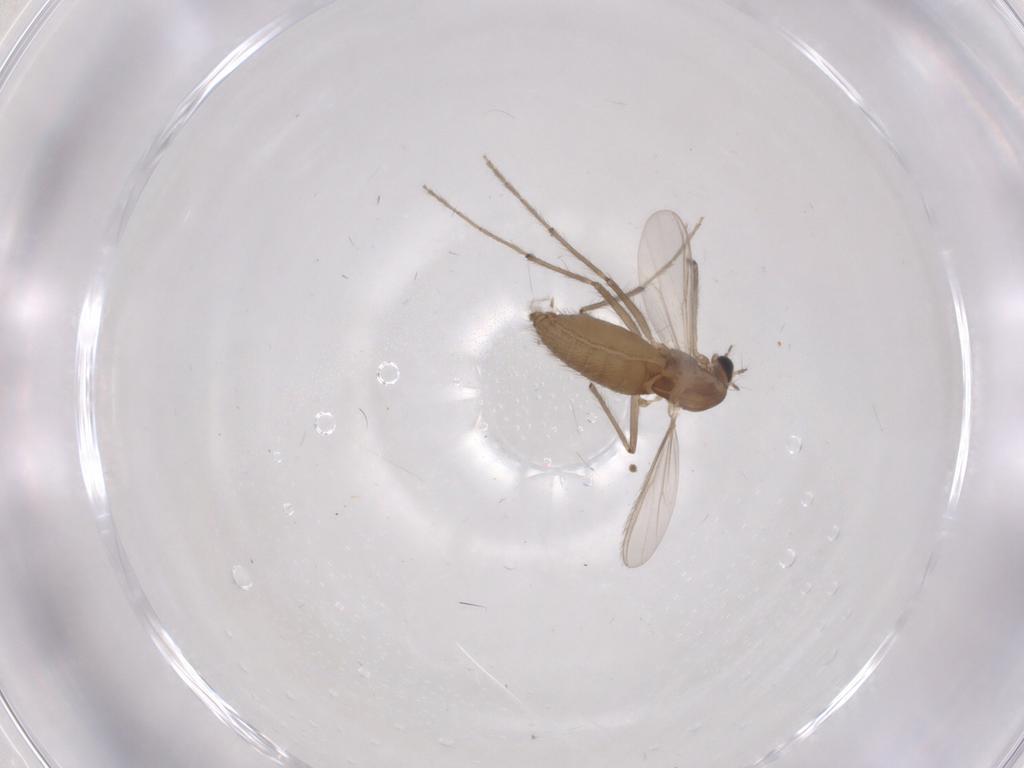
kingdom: Animalia
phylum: Arthropoda
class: Insecta
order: Diptera
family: Chironomidae
